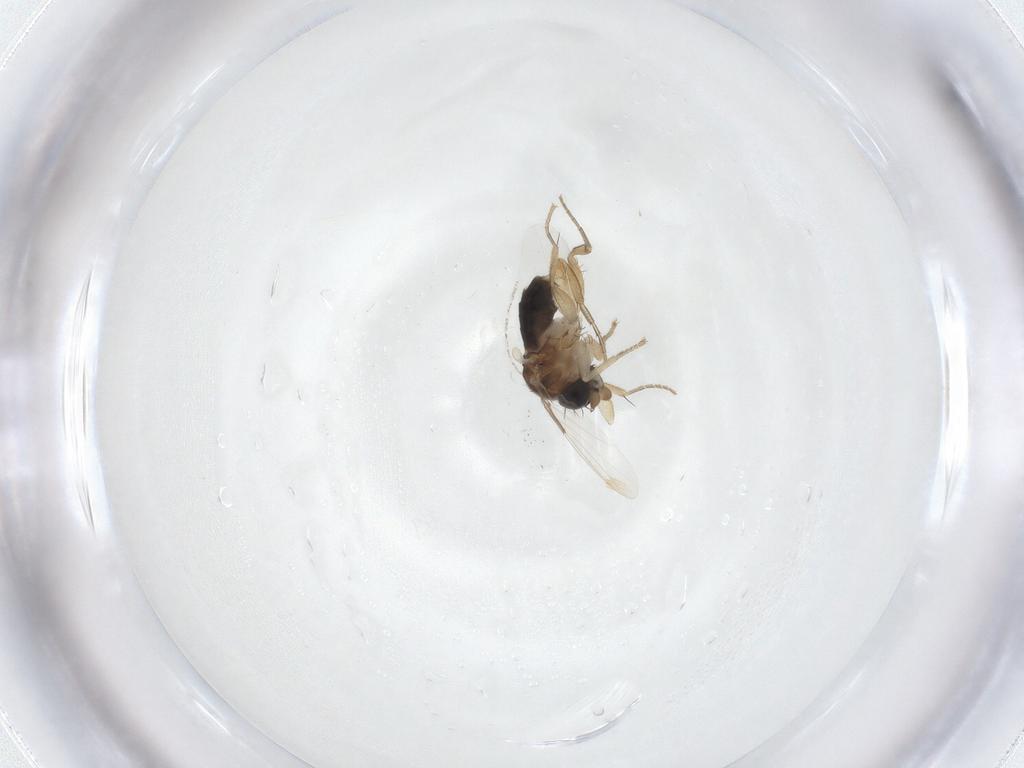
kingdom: Animalia
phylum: Arthropoda
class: Insecta
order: Diptera
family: Phoridae
